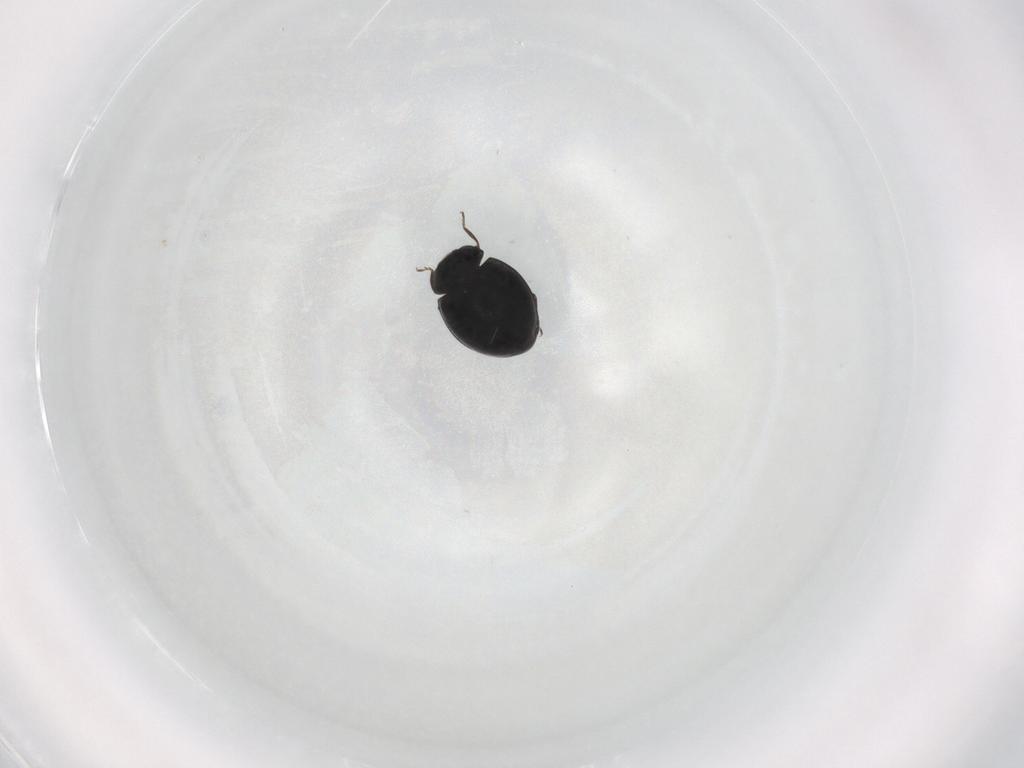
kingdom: Animalia
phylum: Arthropoda
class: Insecta
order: Coleoptera
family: Coccinellidae
